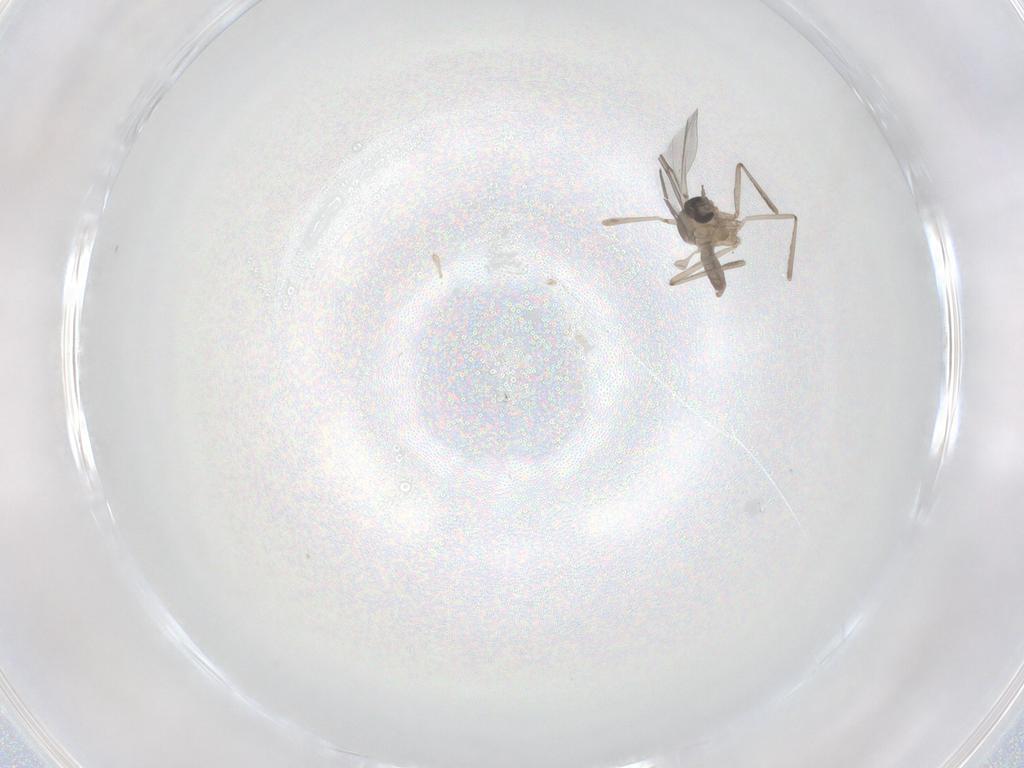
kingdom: Animalia
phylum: Arthropoda
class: Insecta
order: Diptera
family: Cecidomyiidae
